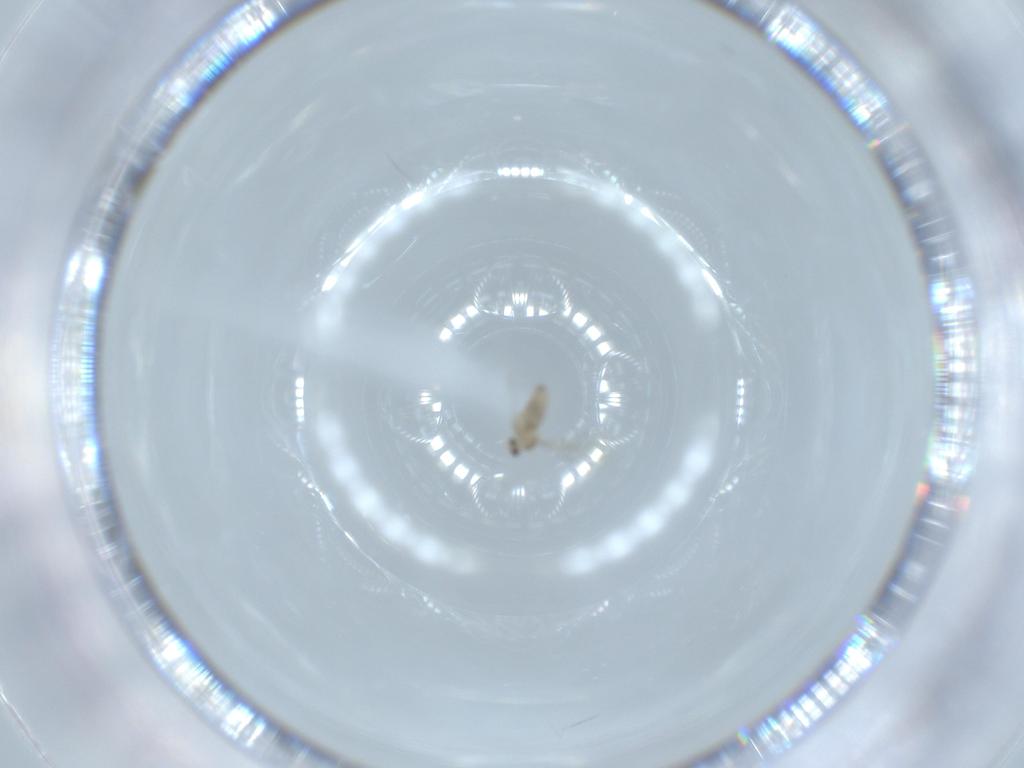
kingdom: Animalia
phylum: Arthropoda
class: Insecta
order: Diptera
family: Cecidomyiidae
